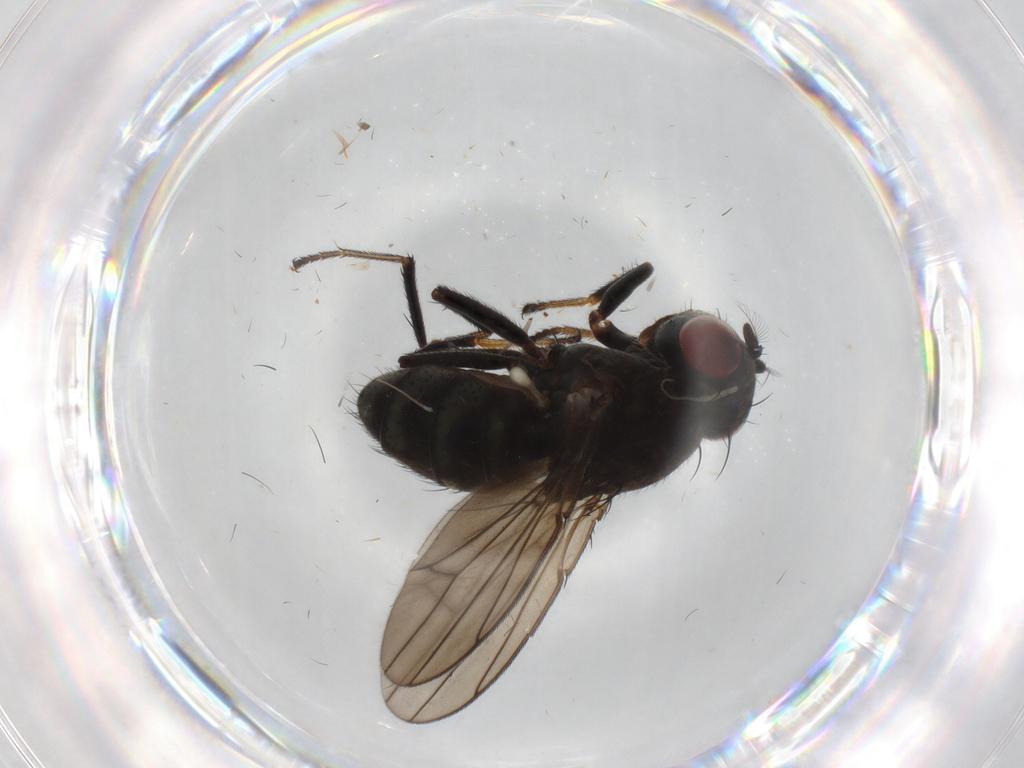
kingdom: Animalia
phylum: Arthropoda
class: Insecta
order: Diptera
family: Ephydridae
